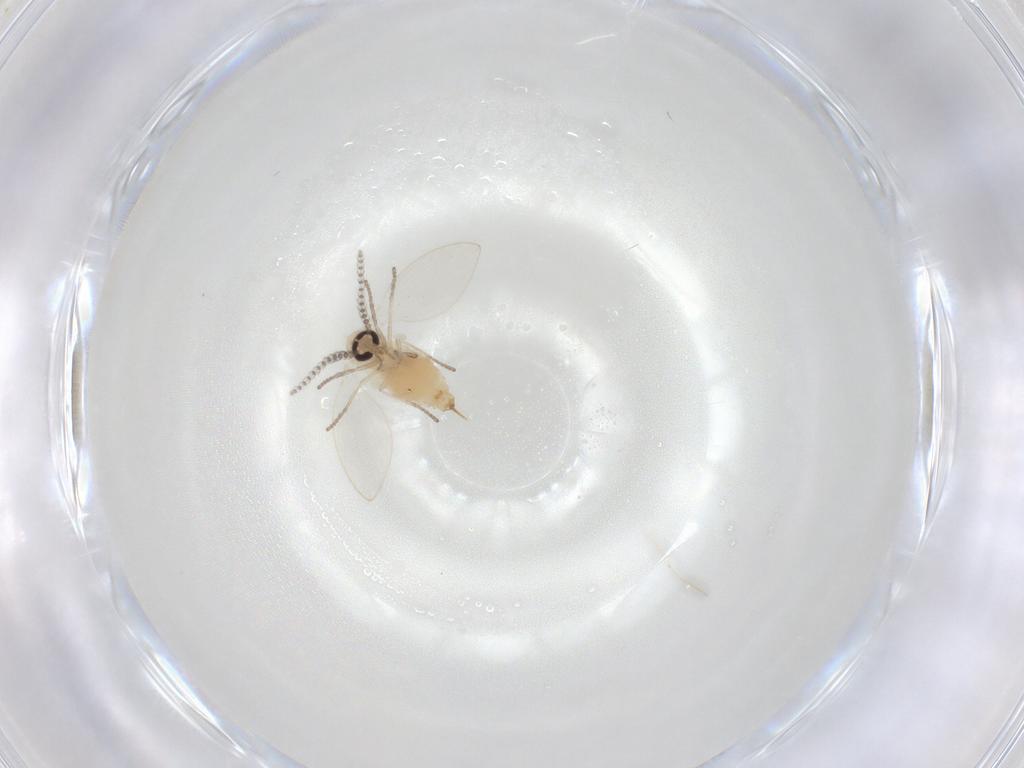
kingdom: Animalia
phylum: Arthropoda
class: Insecta
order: Diptera
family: Psychodidae
